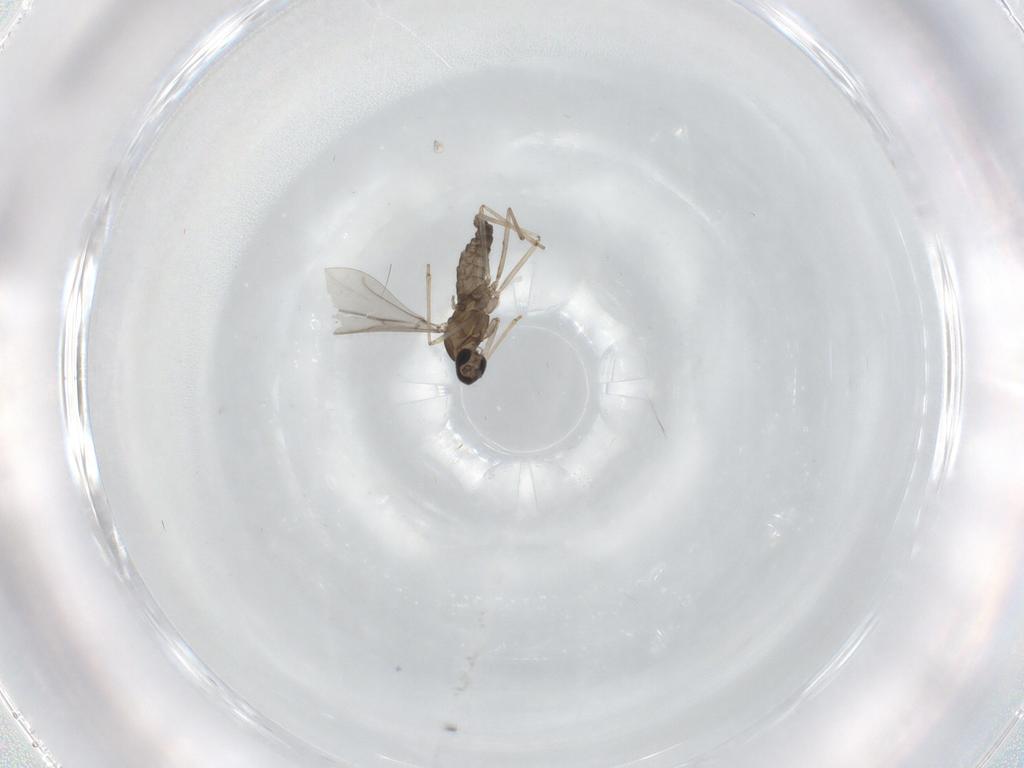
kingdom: Animalia
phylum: Arthropoda
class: Insecta
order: Diptera
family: Cecidomyiidae
